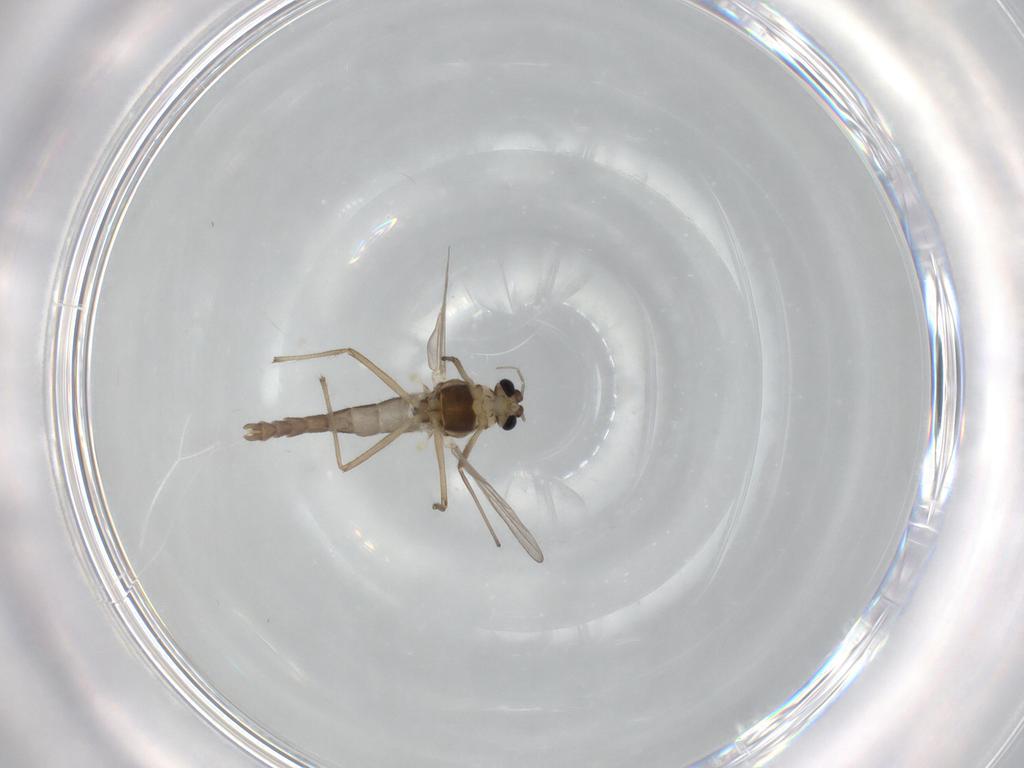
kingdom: Animalia
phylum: Arthropoda
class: Insecta
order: Diptera
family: Chironomidae
